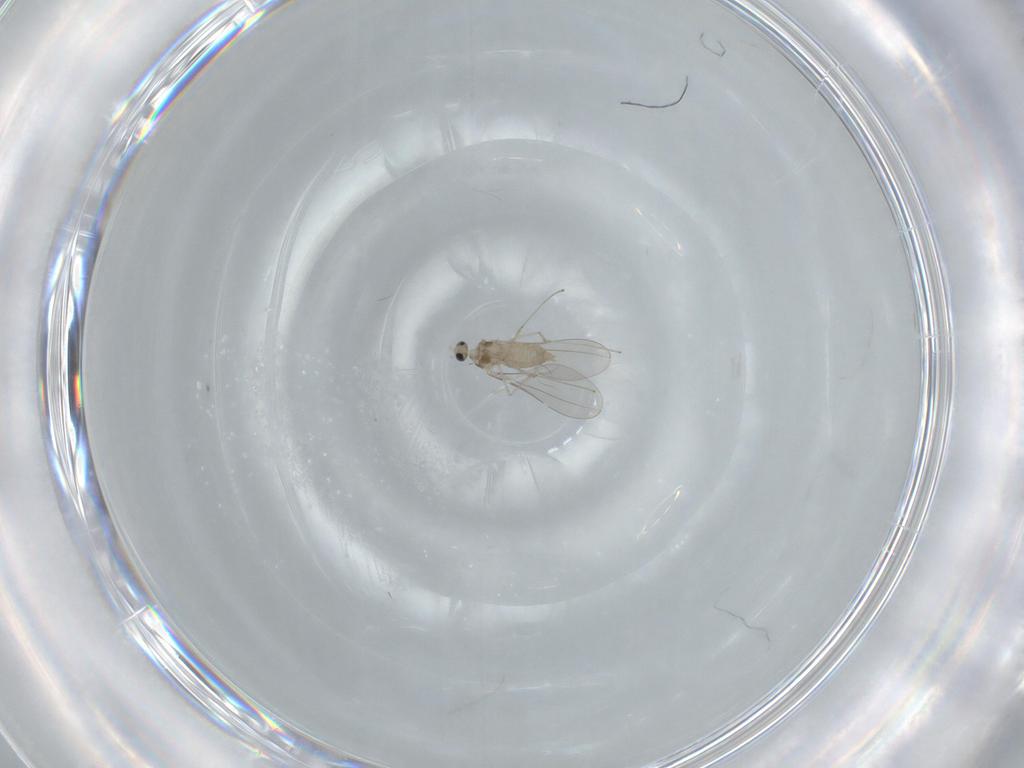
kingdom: Animalia
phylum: Arthropoda
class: Insecta
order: Diptera
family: Cecidomyiidae
